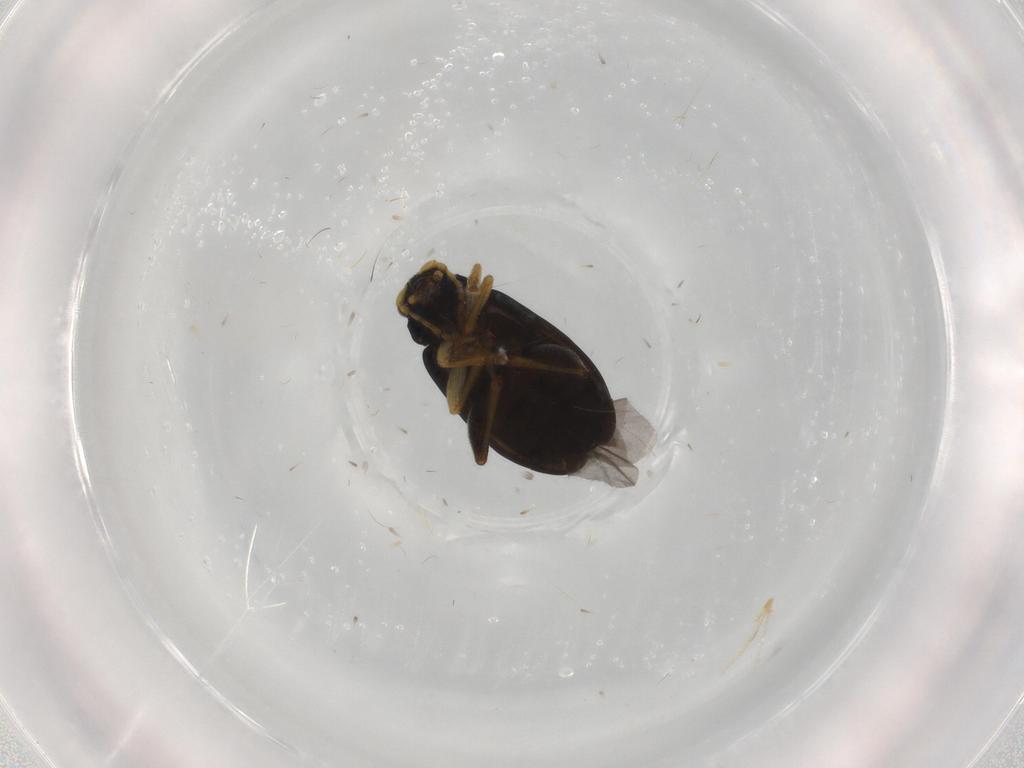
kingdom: Animalia
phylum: Arthropoda
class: Insecta
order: Coleoptera
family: Chrysomelidae
